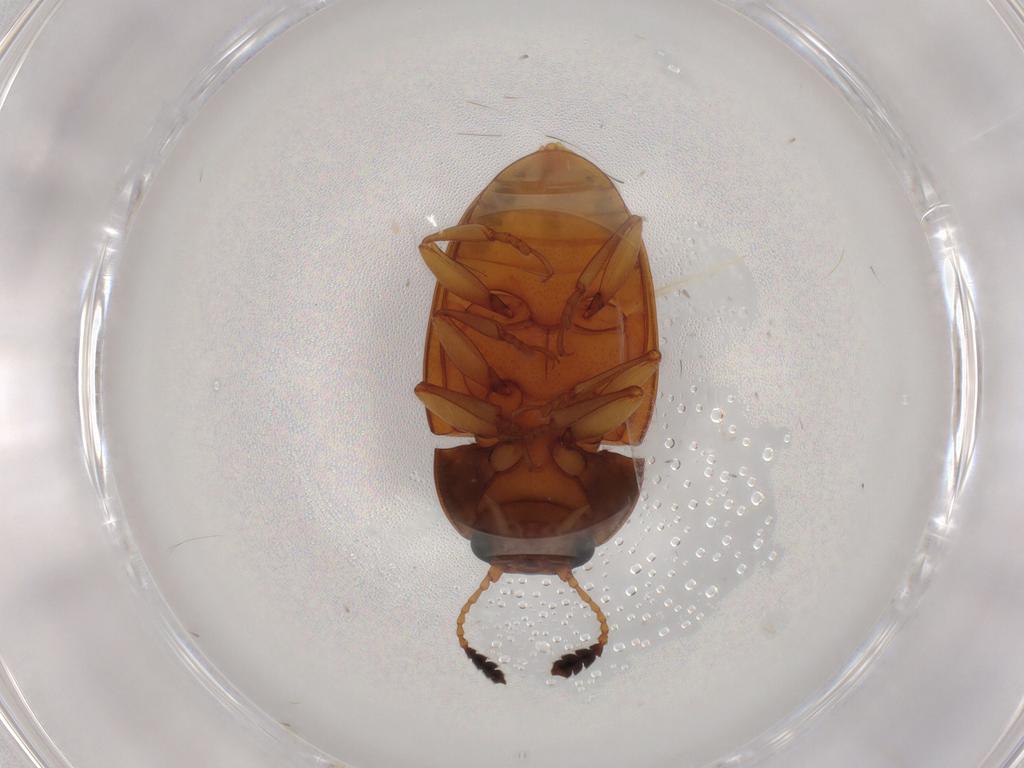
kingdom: Animalia
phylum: Arthropoda
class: Insecta
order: Coleoptera
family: Erotylidae
